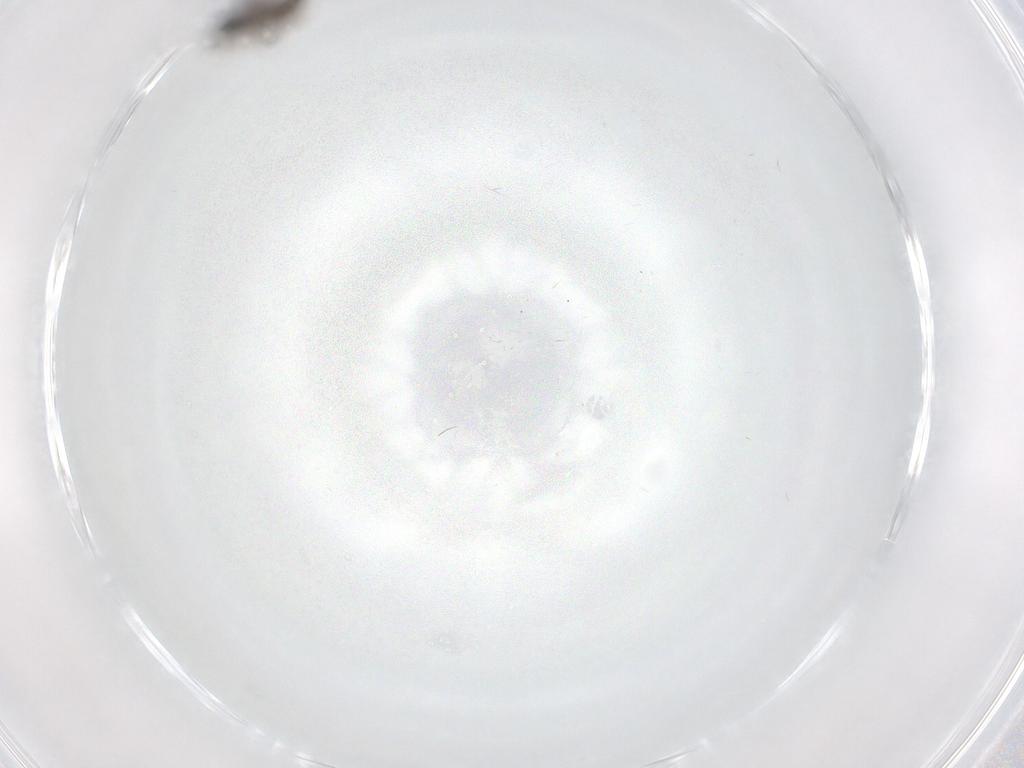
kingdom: Animalia
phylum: Arthropoda
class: Insecta
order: Diptera
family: Sciaridae
